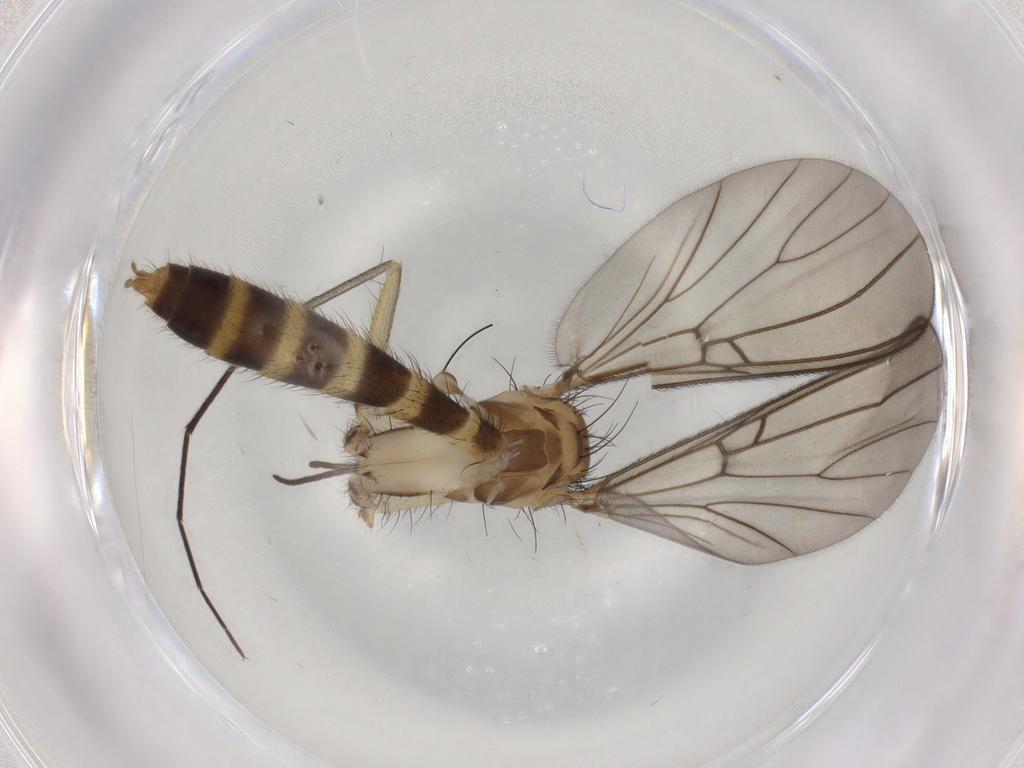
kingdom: Animalia
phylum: Arthropoda
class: Insecta
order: Diptera
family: Mycetophilidae
